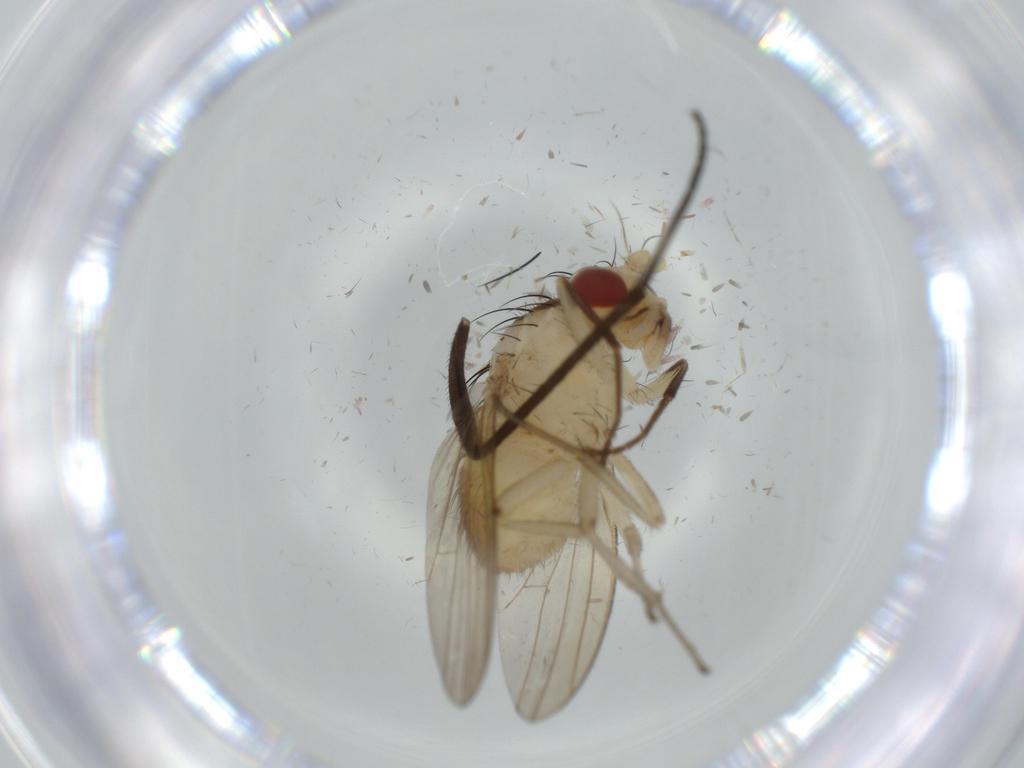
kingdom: Animalia
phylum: Arthropoda
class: Insecta
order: Diptera
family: Lauxaniidae
